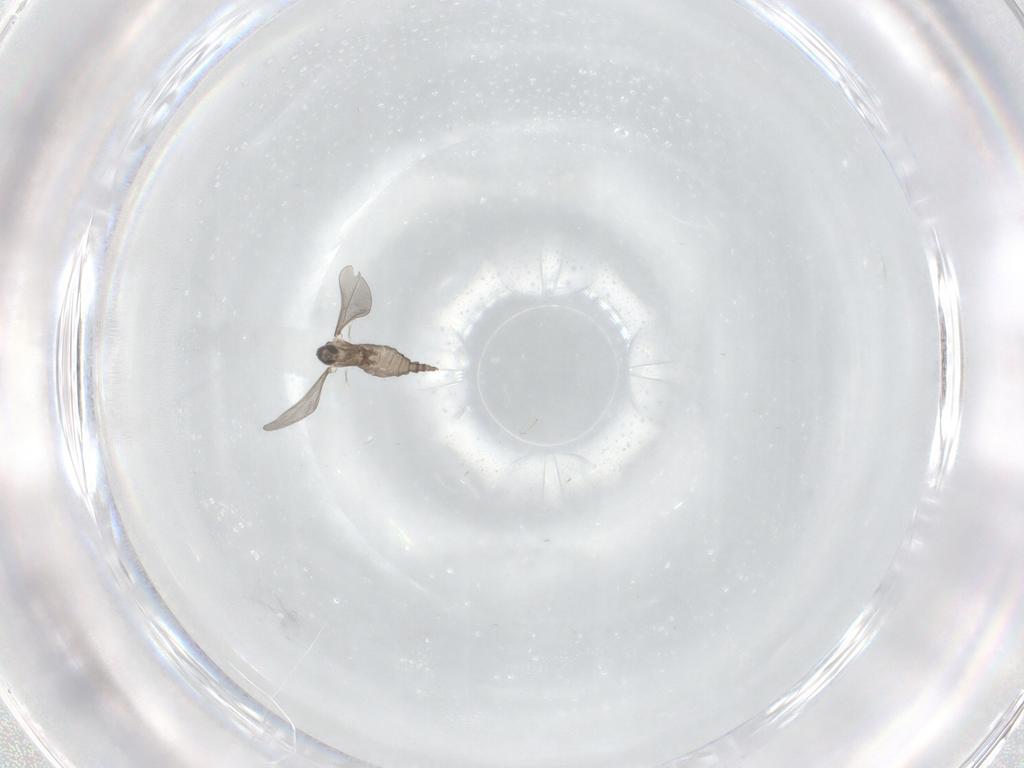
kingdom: Animalia
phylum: Arthropoda
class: Insecta
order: Diptera
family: Cecidomyiidae
